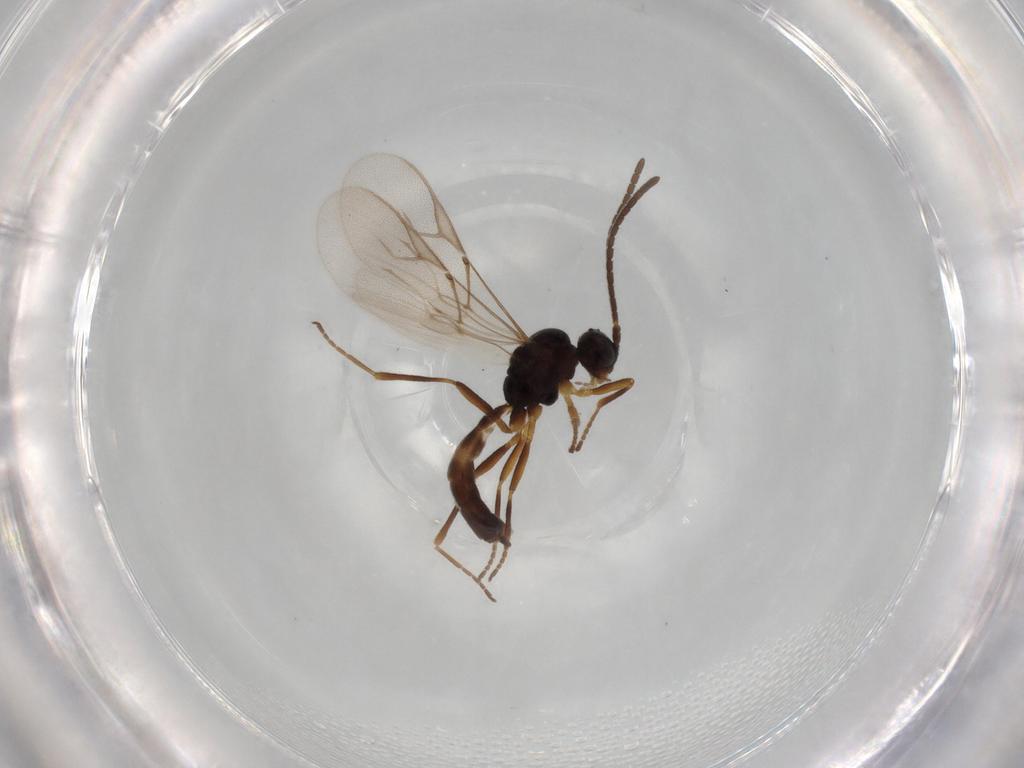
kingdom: Animalia
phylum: Arthropoda
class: Insecta
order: Hymenoptera
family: Braconidae
